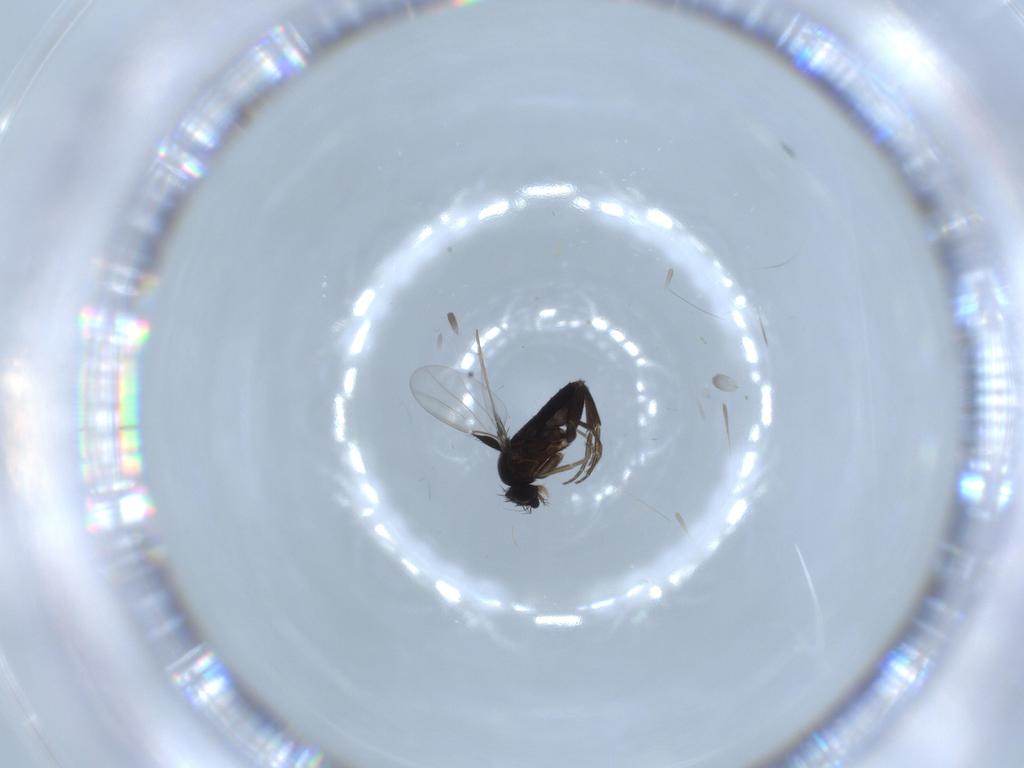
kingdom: Animalia
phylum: Arthropoda
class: Insecta
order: Diptera
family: Phoridae
